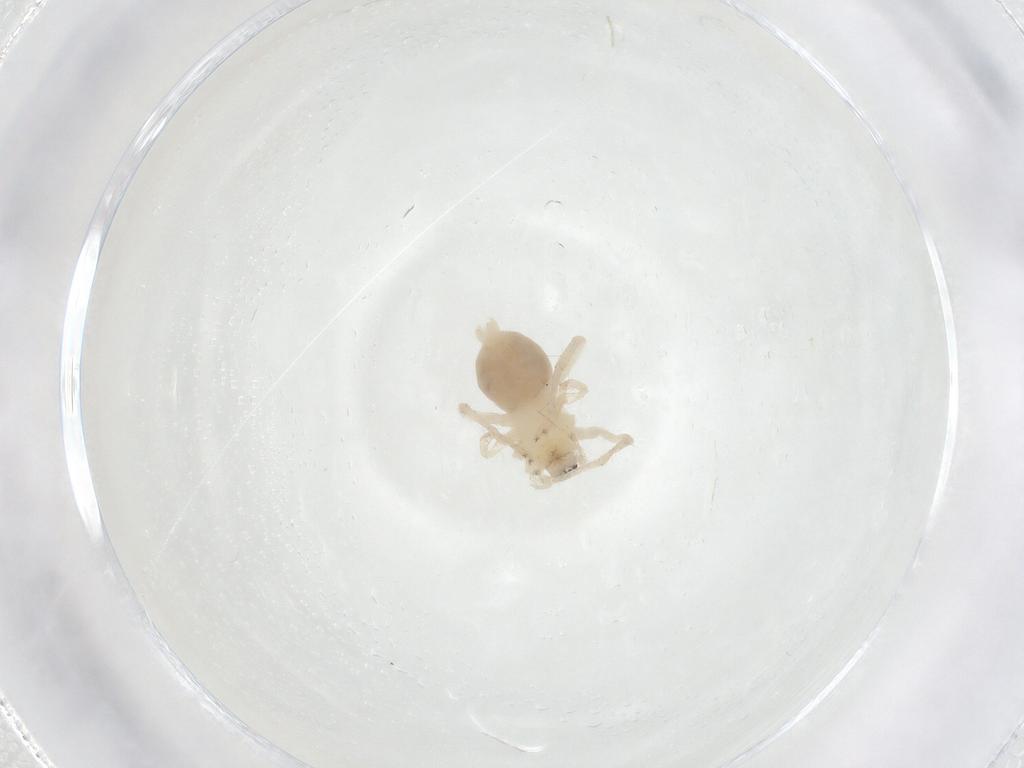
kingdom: Animalia
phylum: Arthropoda
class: Arachnida
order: Araneae
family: Anyphaenidae
